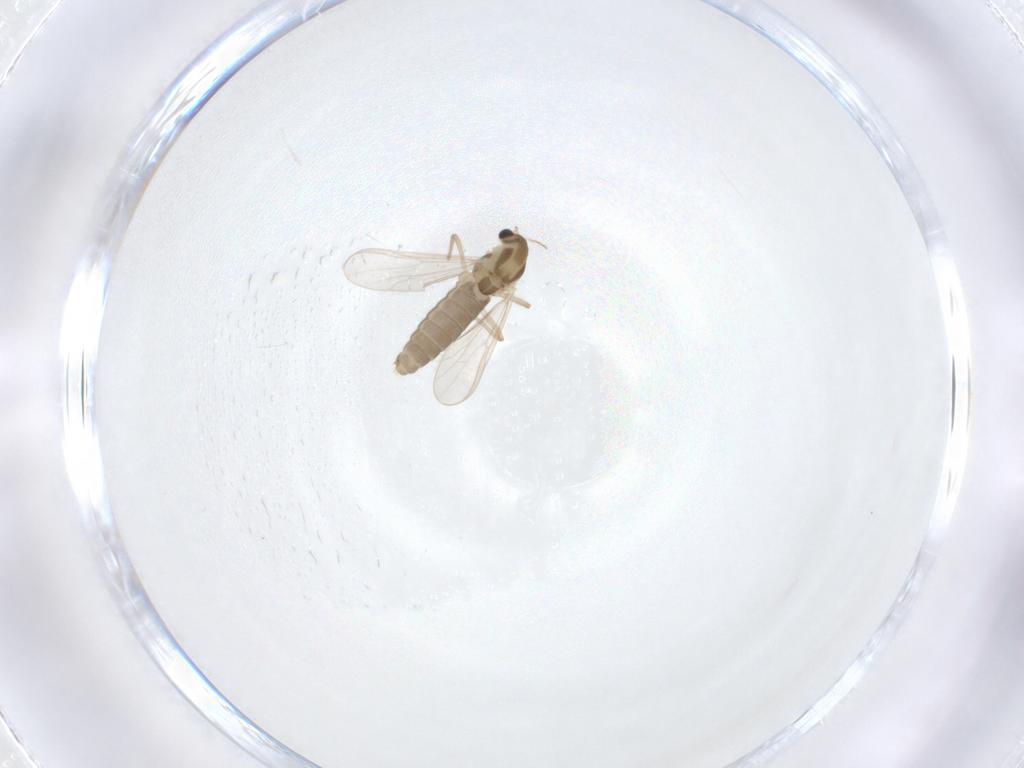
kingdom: Animalia
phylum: Arthropoda
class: Insecta
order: Diptera
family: Chironomidae
